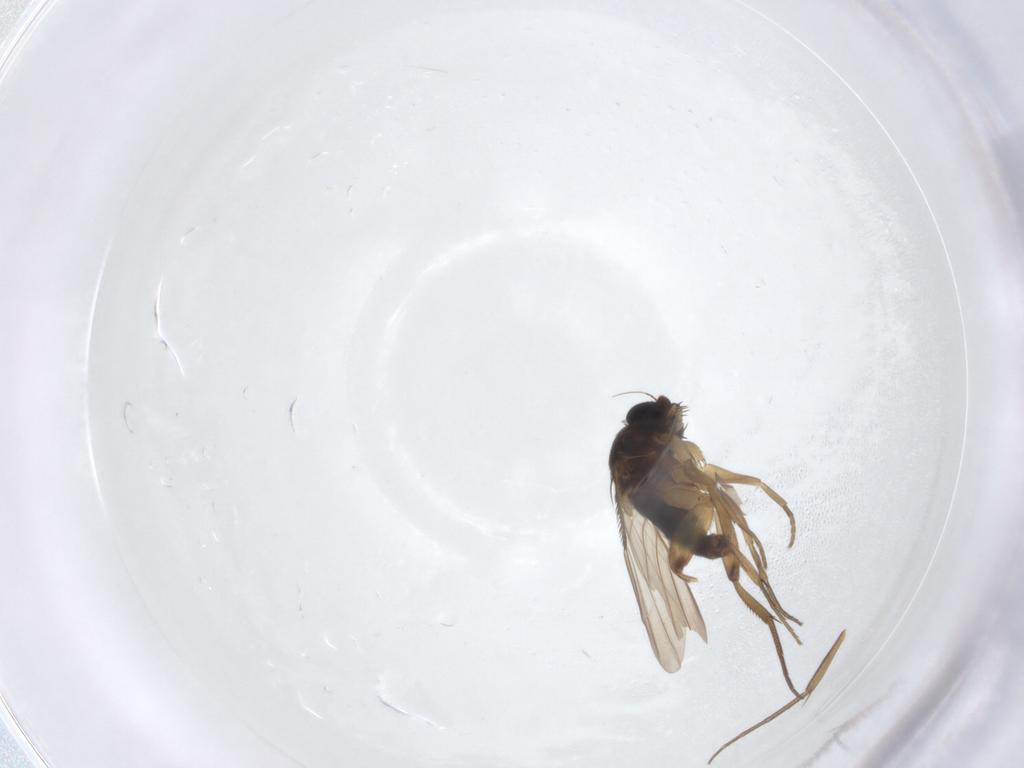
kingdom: Animalia
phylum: Arthropoda
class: Insecta
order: Diptera
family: Phoridae
